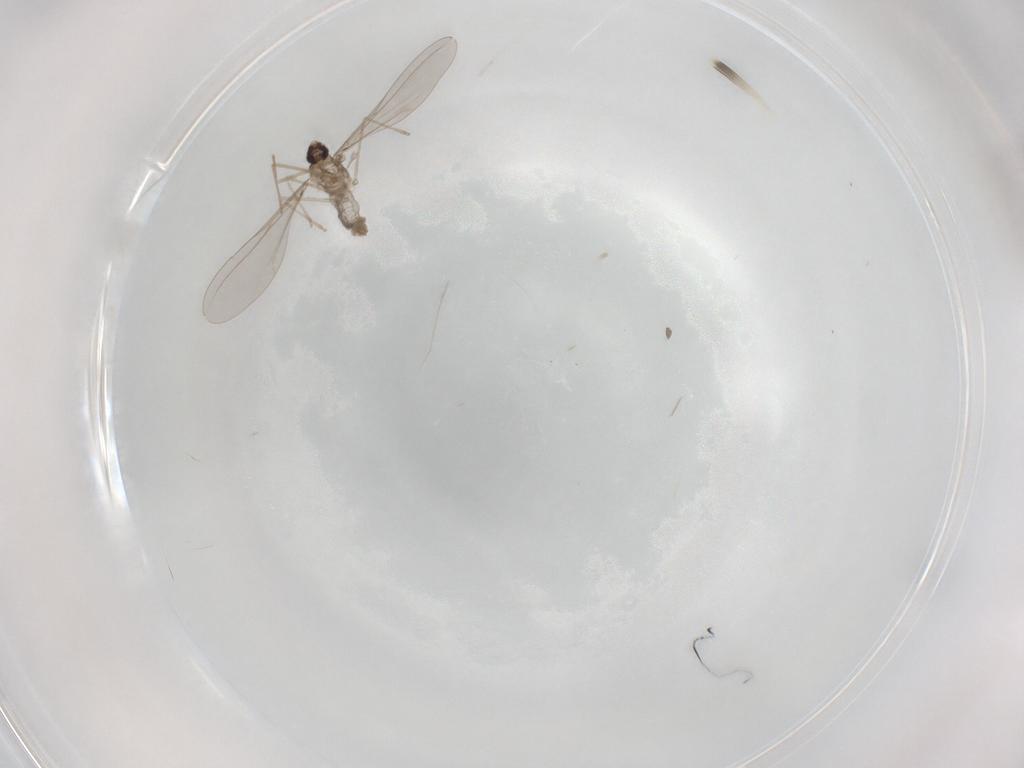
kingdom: Animalia
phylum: Arthropoda
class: Insecta
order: Diptera
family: Cecidomyiidae
